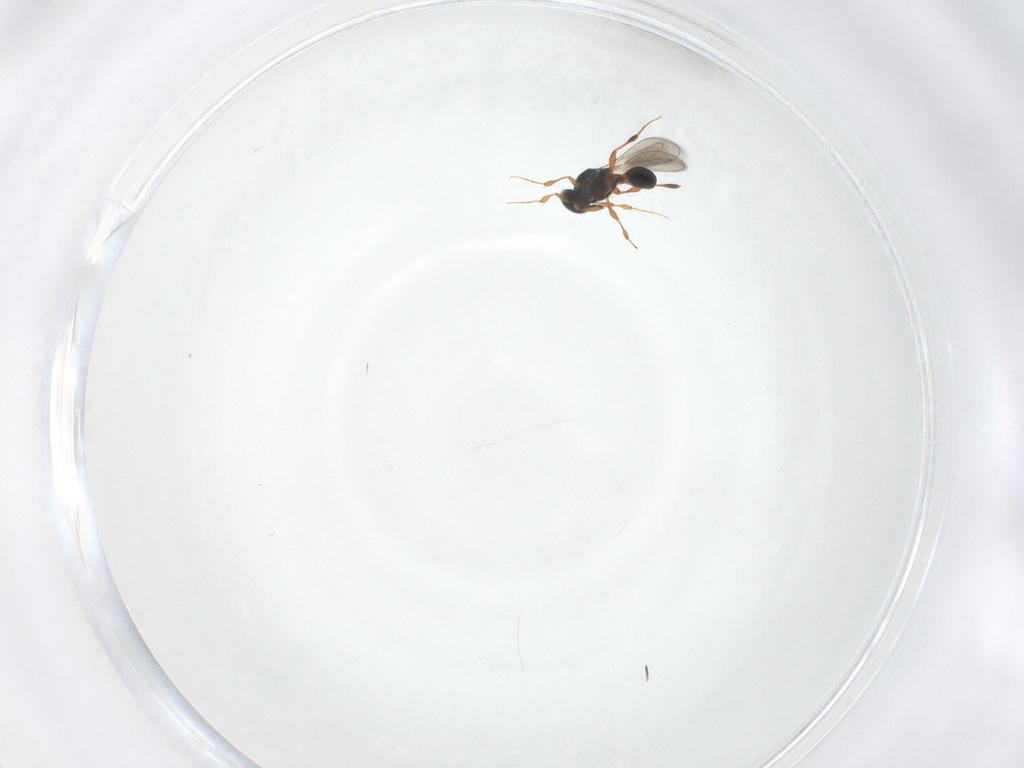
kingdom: Animalia
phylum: Arthropoda
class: Insecta
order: Hymenoptera
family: Platygastridae
